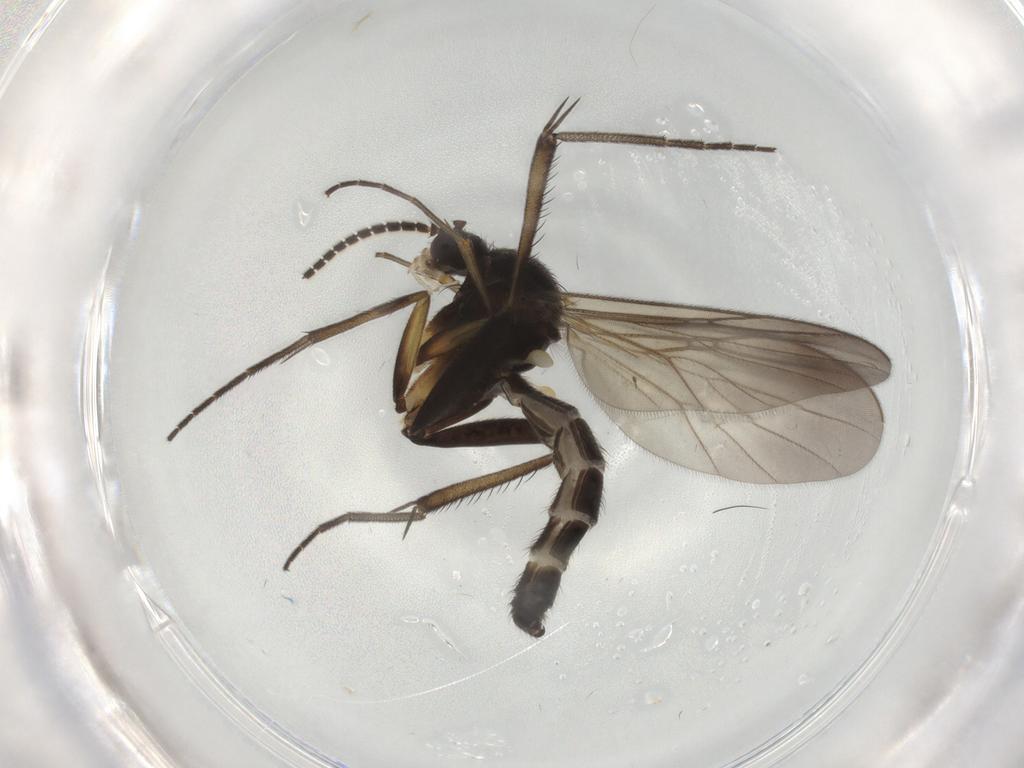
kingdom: Animalia
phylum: Arthropoda
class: Insecta
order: Diptera
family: Mycetophilidae
